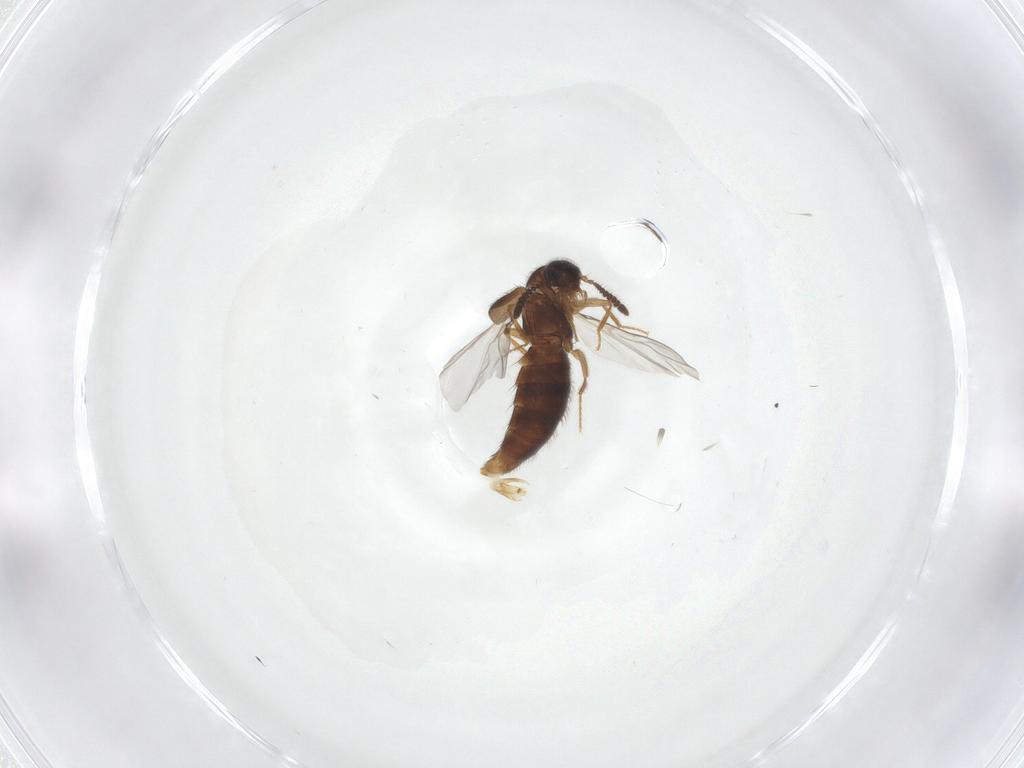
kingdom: Animalia
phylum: Arthropoda
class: Insecta
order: Coleoptera
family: Staphylinidae
